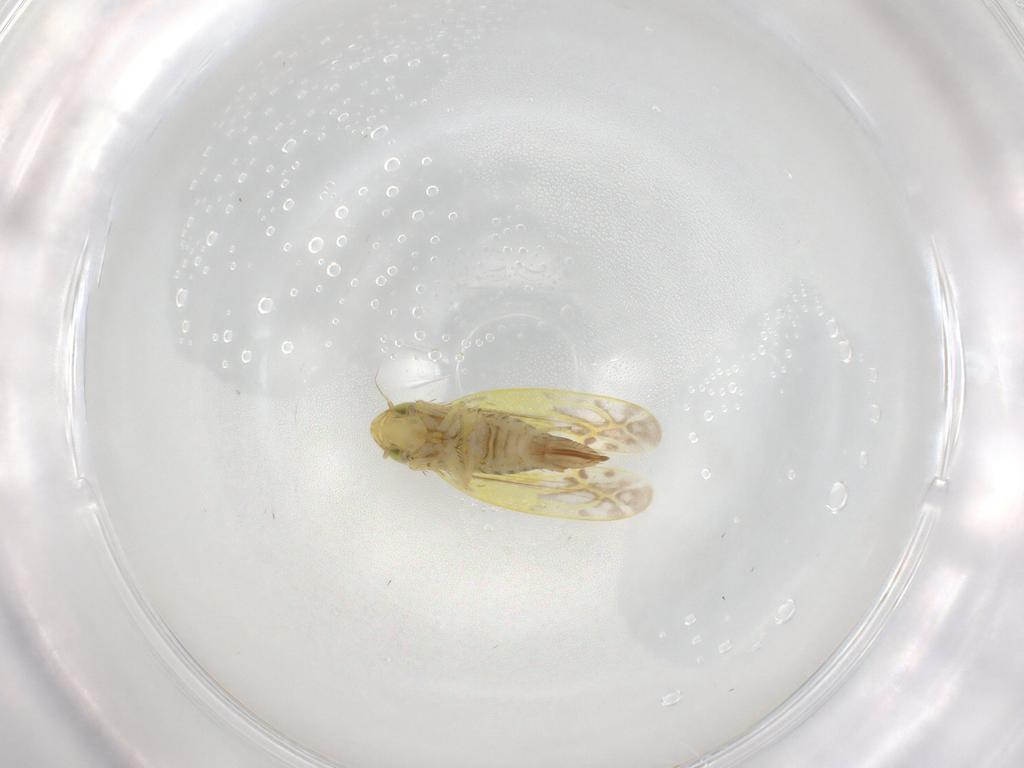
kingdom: Animalia
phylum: Arthropoda
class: Insecta
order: Hemiptera
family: Cicadellidae
